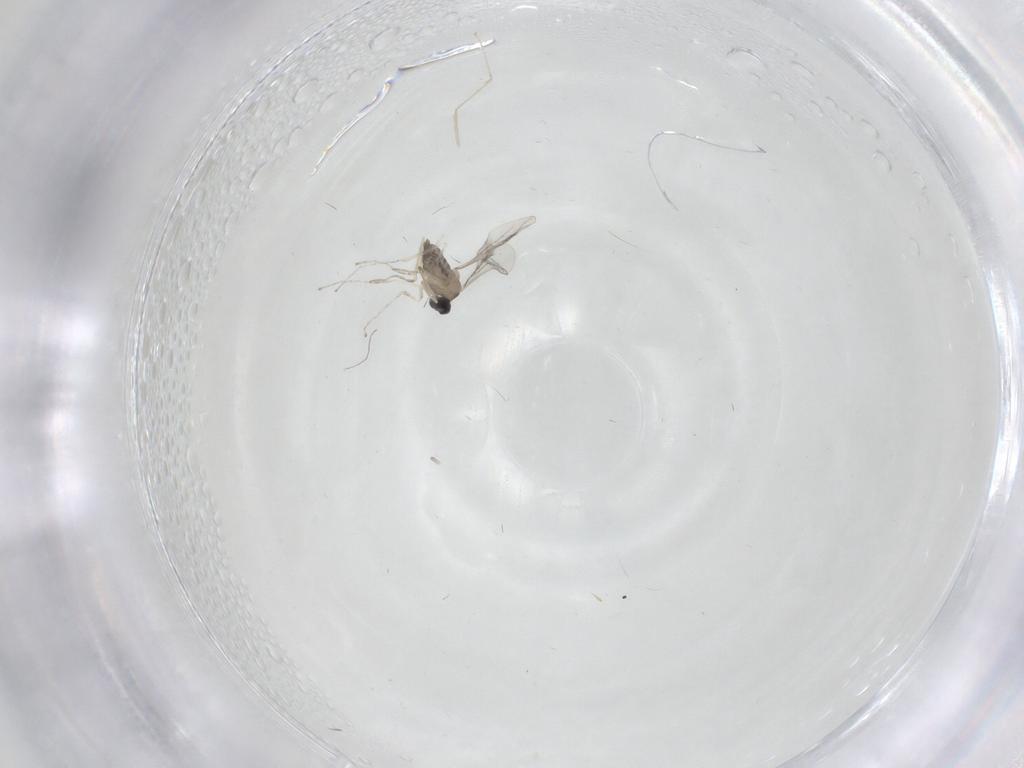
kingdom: Animalia
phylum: Arthropoda
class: Insecta
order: Diptera
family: Cecidomyiidae
